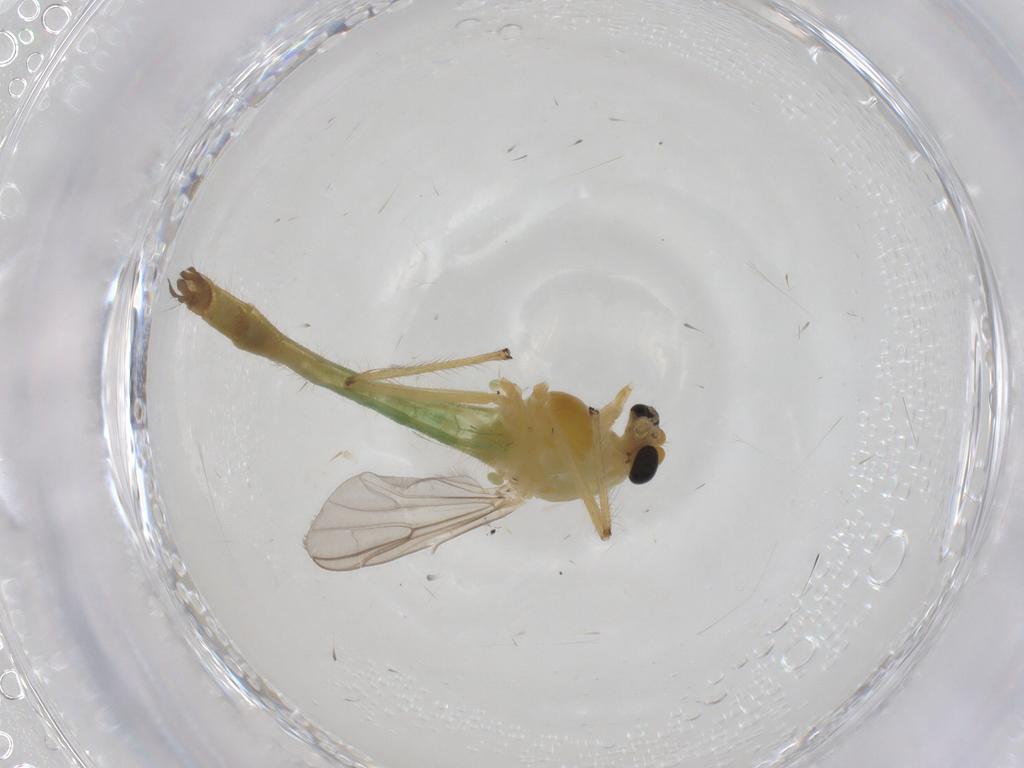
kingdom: Animalia
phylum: Arthropoda
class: Insecta
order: Diptera
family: Chironomidae
